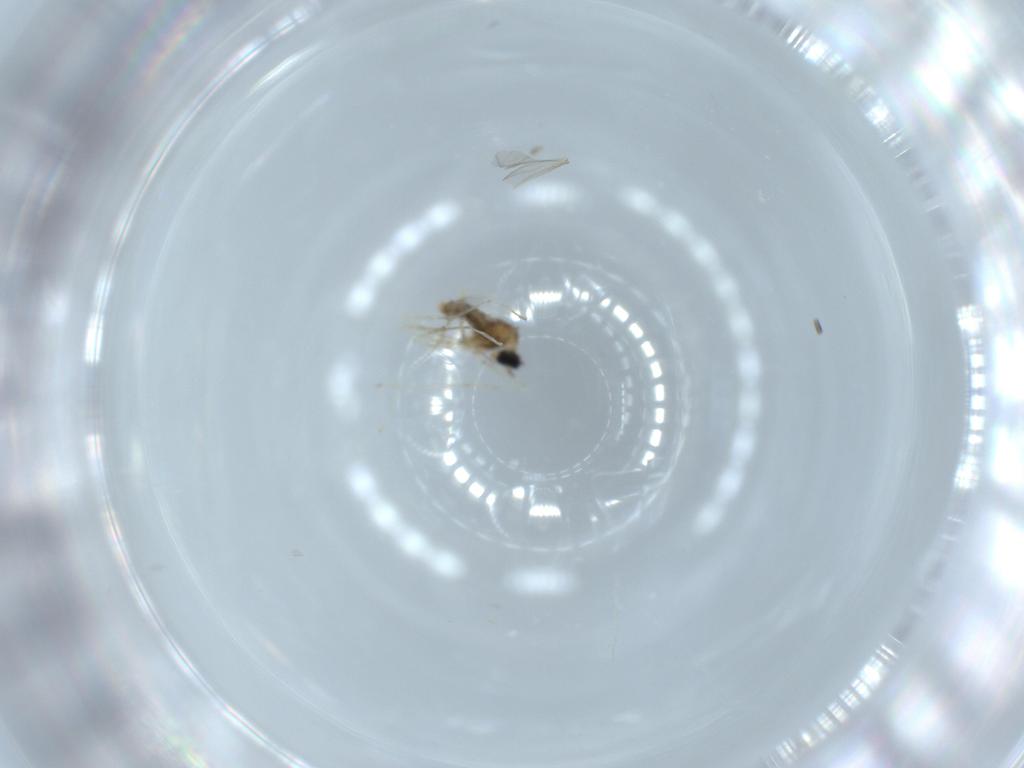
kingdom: Animalia
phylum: Arthropoda
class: Insecta
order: Diptera
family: Cecidomyiidae
